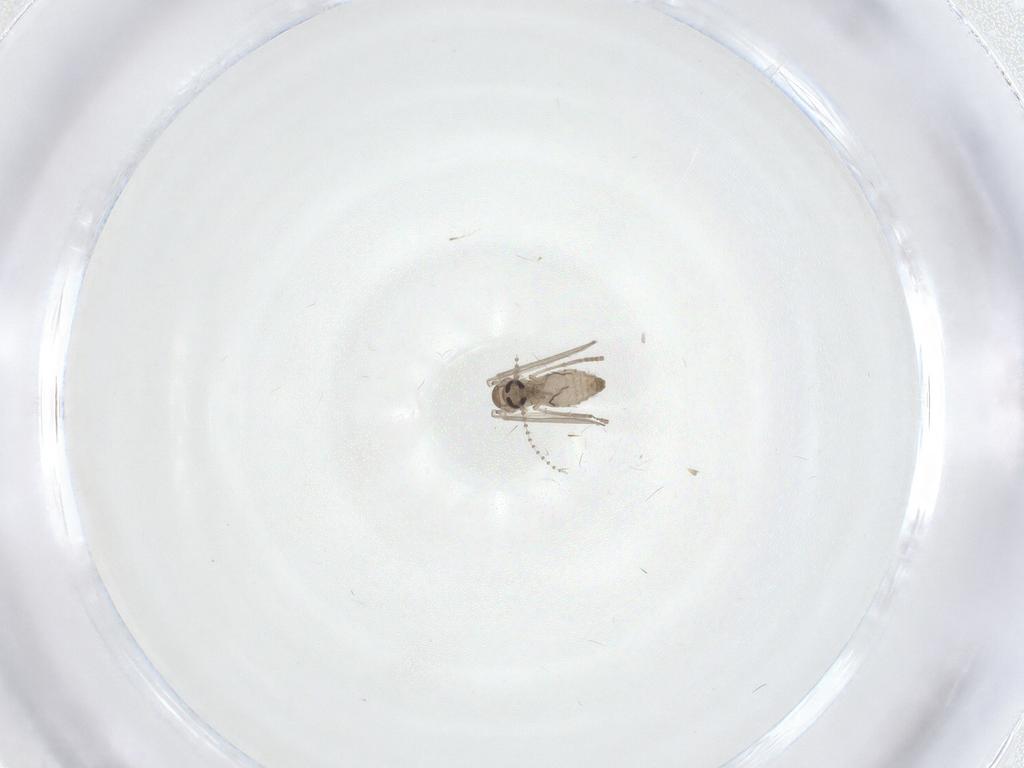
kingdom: Animalia
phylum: Arthropoda
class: Insecta
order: Diptera
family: Psychodidae
